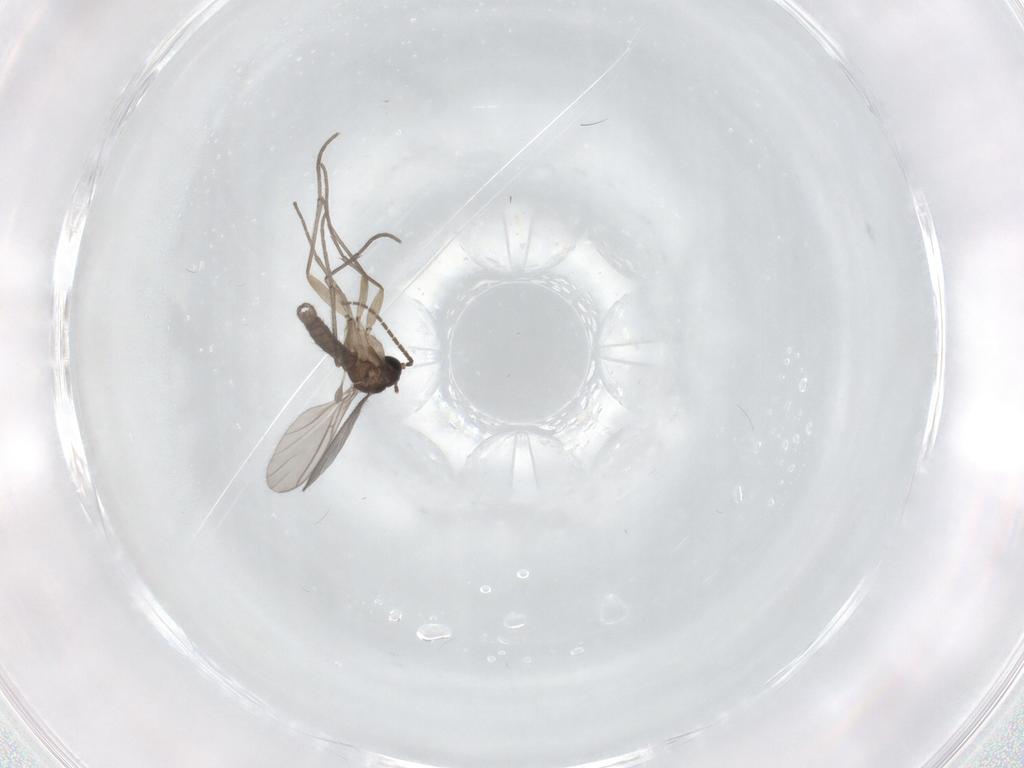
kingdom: Animalia
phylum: Arthropoda
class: Insecta
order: Diptera
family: Sciaridae
